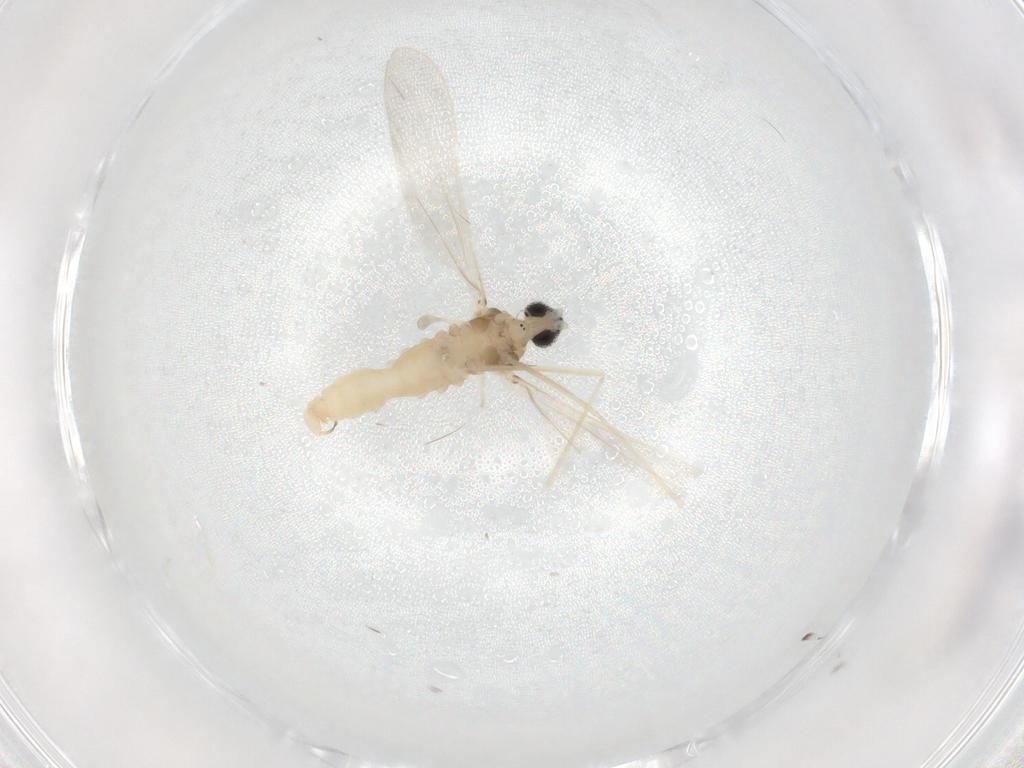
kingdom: Animalia
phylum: Arthropoda
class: Insecta
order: Diptera
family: Cecidomyiidae
